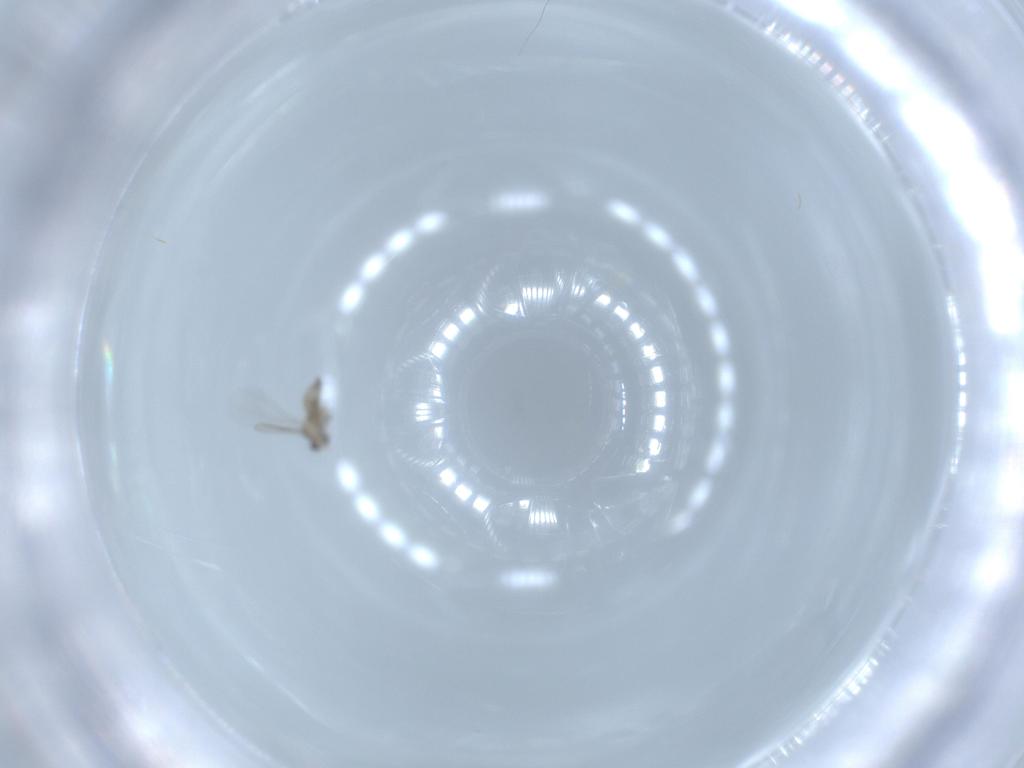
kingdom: Animalia
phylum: Arthropoda
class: Insecta
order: Diptera
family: Cecidomyiidae
